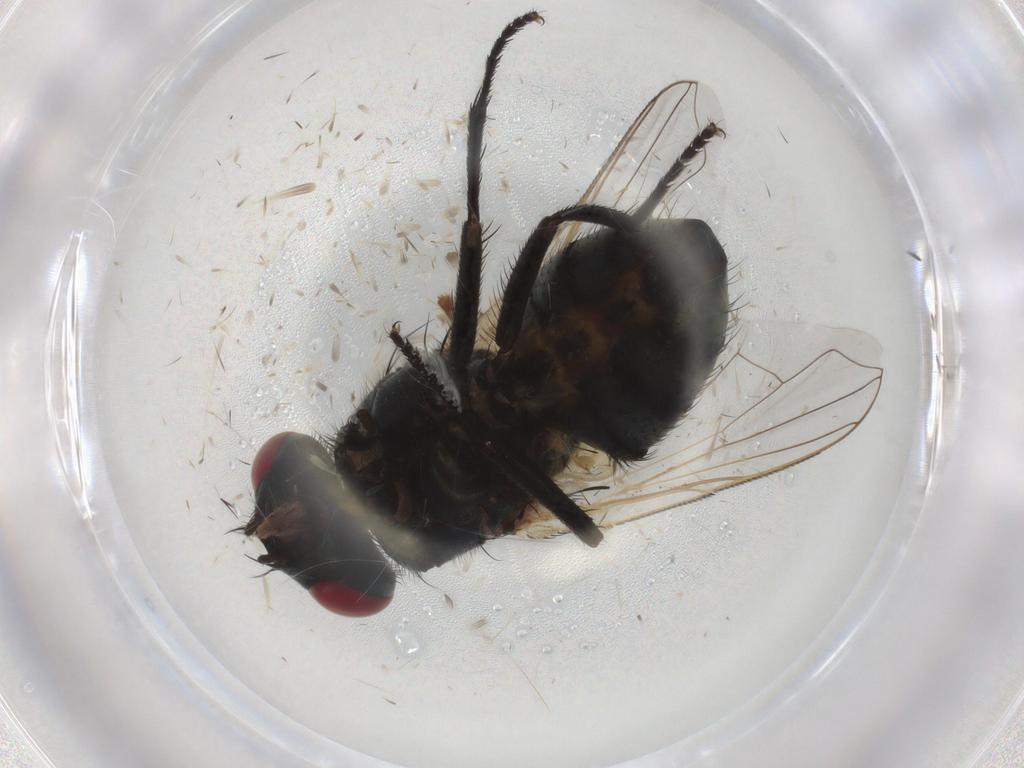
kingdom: Animalia
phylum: Arthropoda
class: Insecta
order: Diptera
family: Muscidae
